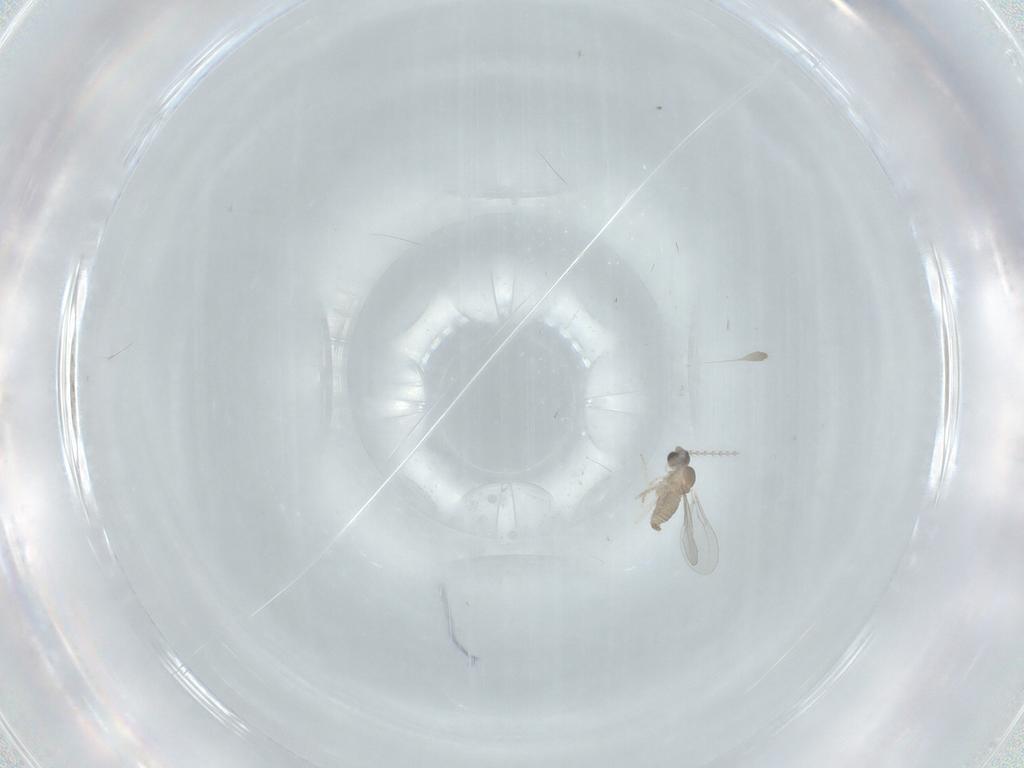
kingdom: Animalia
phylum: Arthropoda
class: Insecta
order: Diptera
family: Cecidomyiidae
